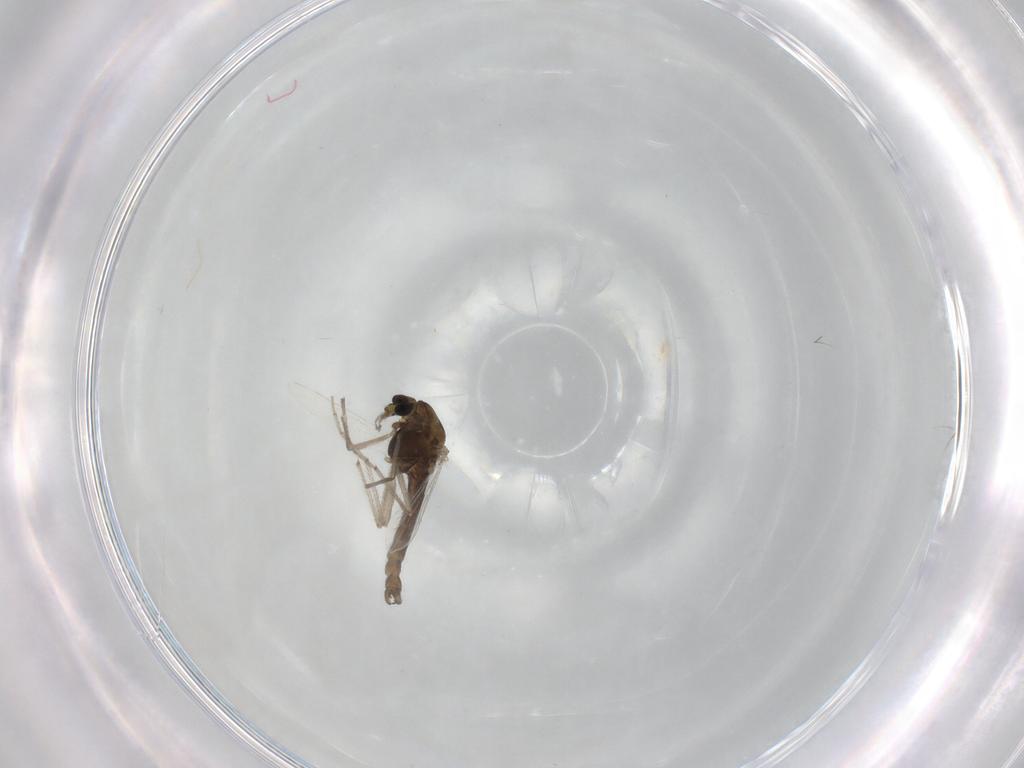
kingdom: Animalia
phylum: Arthropoda
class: Insecta
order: Diptera
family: Chironomidae
